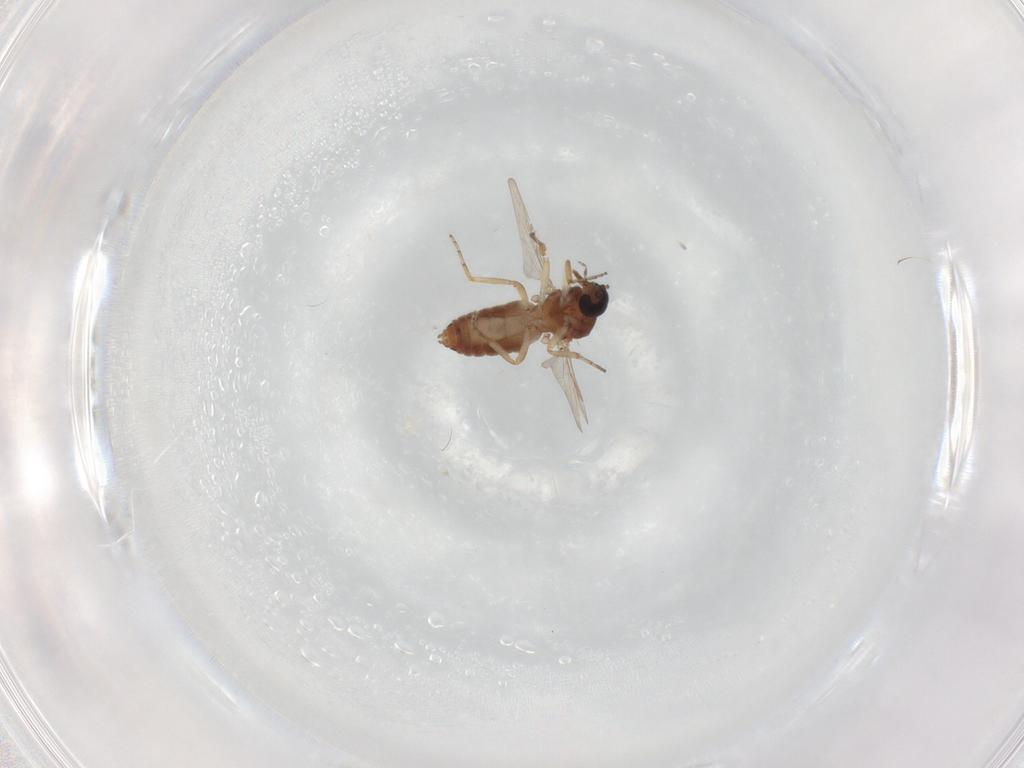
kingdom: Animalia
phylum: Arthropoda
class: Insecta
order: Diptera
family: Ceratopogonidae
